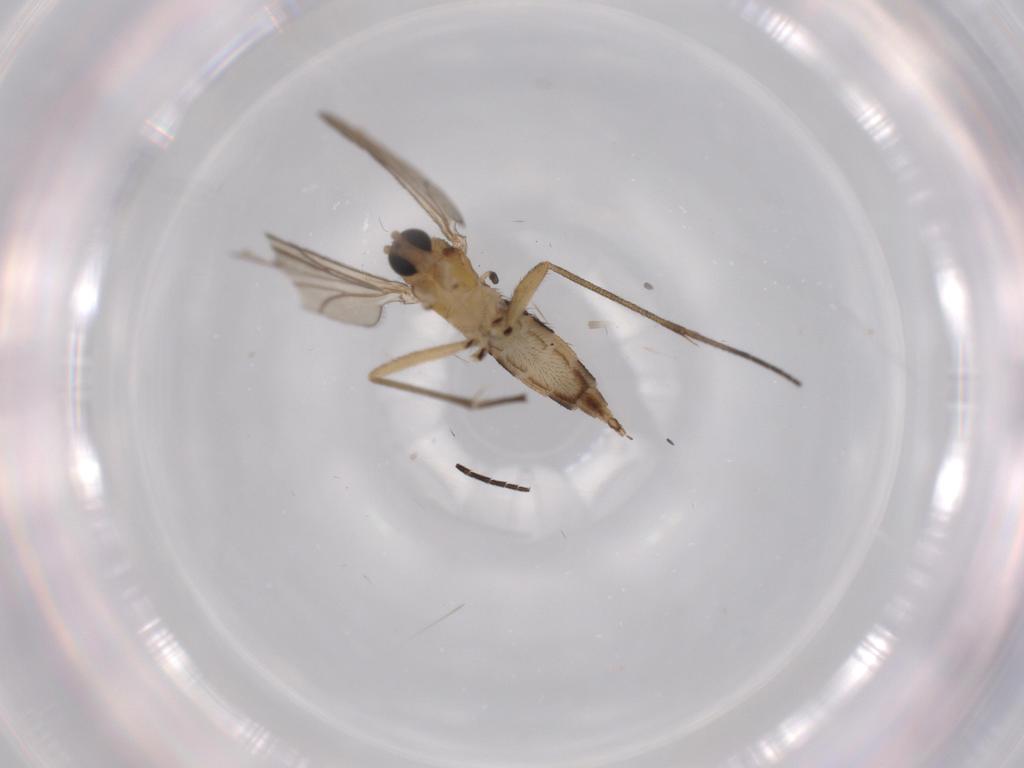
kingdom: Animalia
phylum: Arthropoda
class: Insecta
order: Diptera
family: Sciaridae
